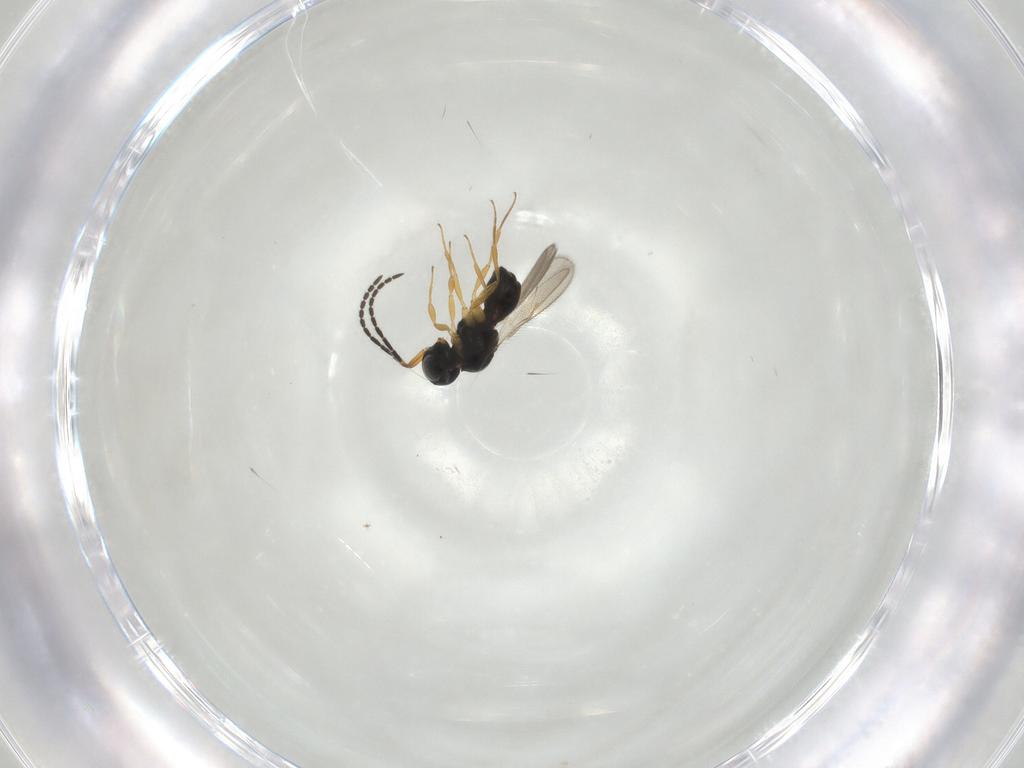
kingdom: Animalia
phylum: Arthropoda
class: Insecta
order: Hymenoptera
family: Scelionidae
